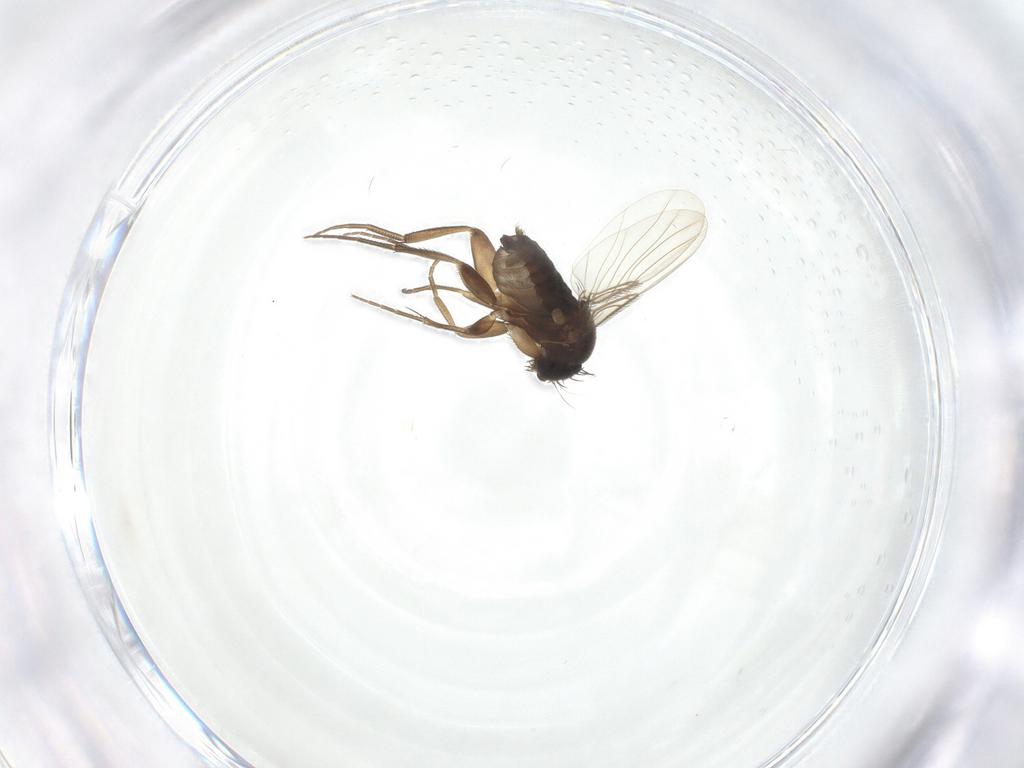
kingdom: Animalia
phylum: Arthropoda
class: Insecta
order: Diptera
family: Phoridae
